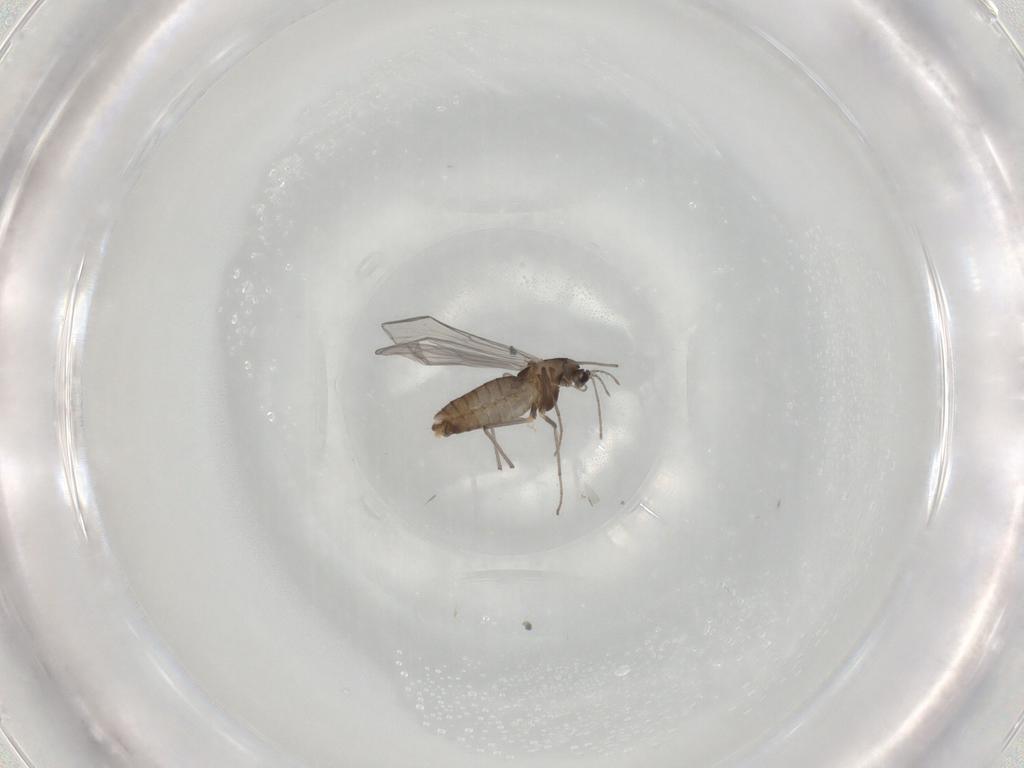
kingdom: Animalia
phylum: Arthropoda
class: Insecta
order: Diptera
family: Chironomidae
